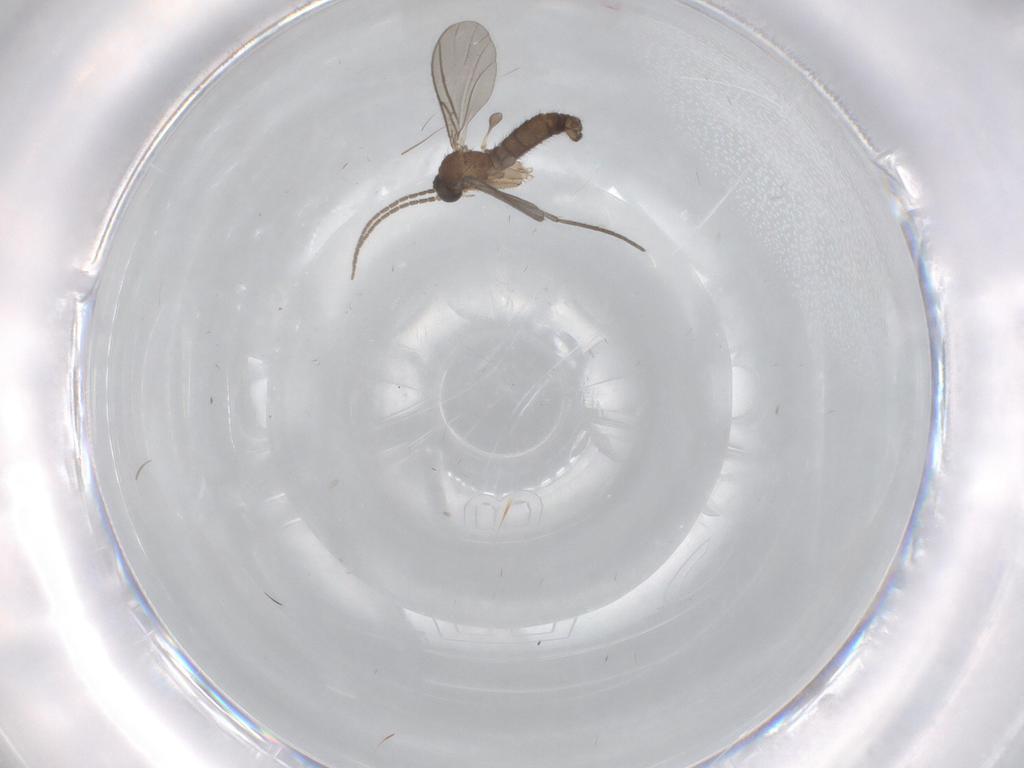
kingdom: Animalia
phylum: Arthropoda
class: Insecta
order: Diptera
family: Sciaridae
